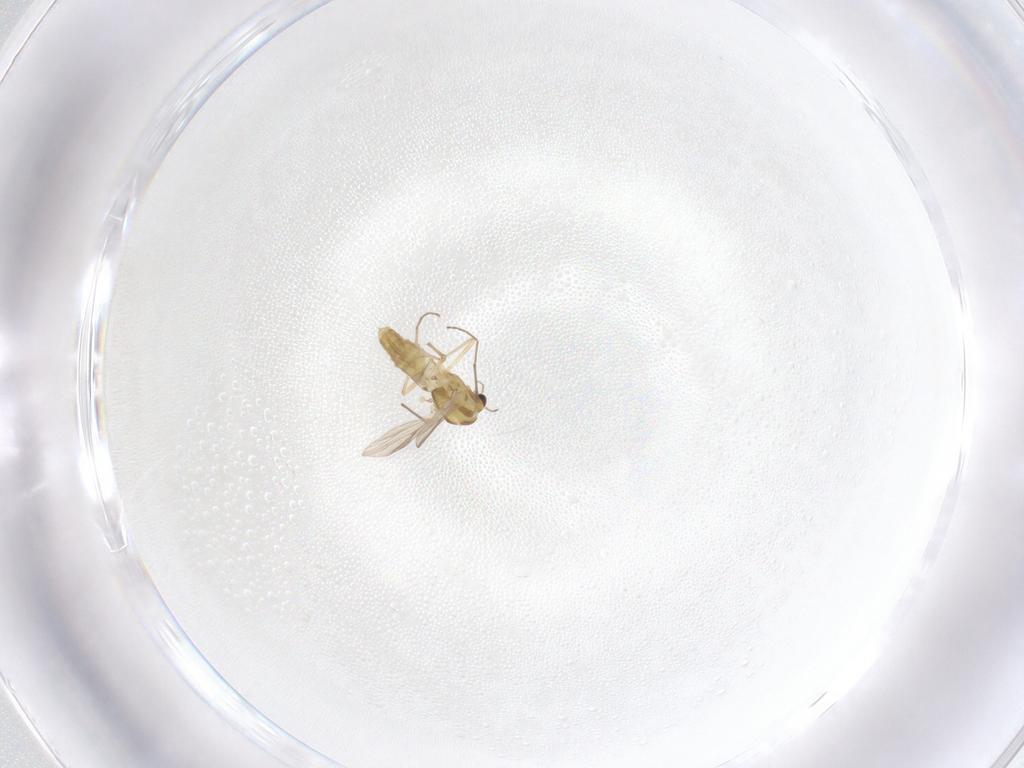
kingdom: Animalia
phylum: Arthropoda
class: Insecta
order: Diptera
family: Chironomidae
